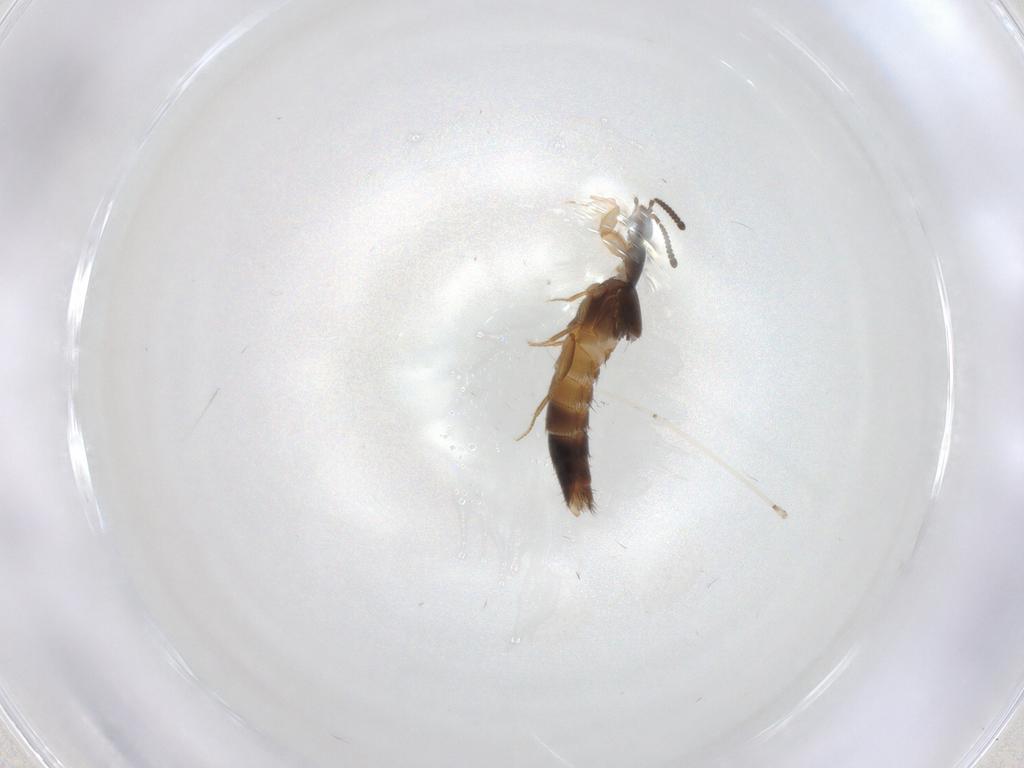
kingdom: Animalia
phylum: Arthropoda
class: Insecta
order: Coleoptera
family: Staphylinidae
